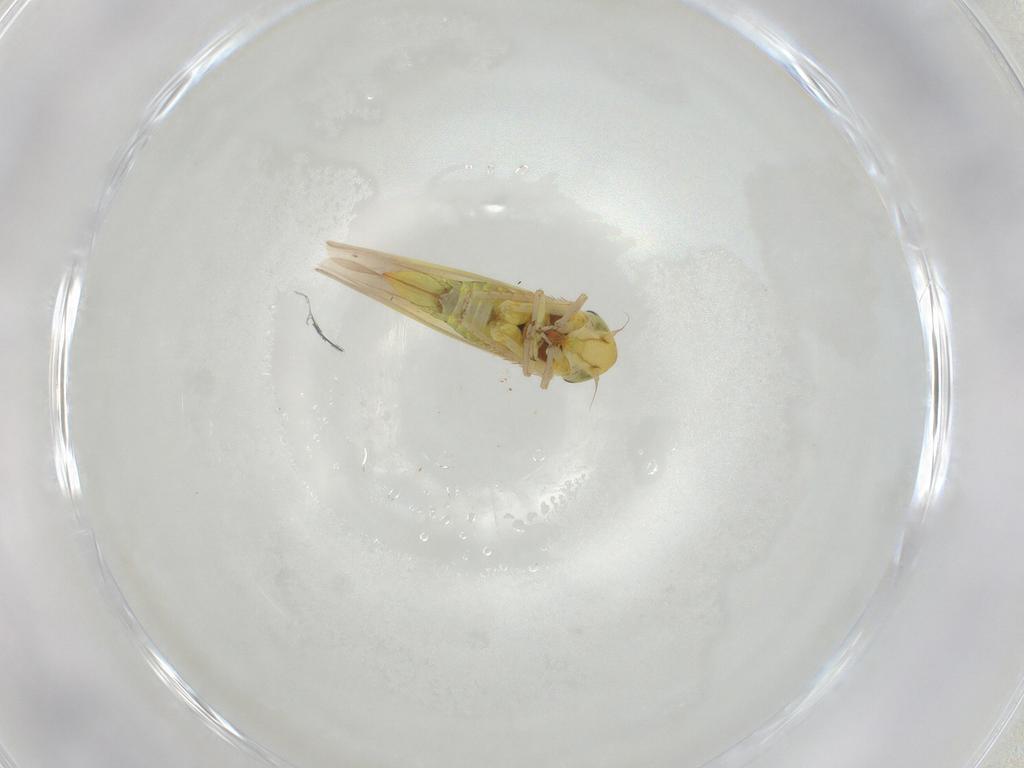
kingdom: Animalia
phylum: Arthropoda
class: Insecta
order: Hemiptera
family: Cicadellidae
